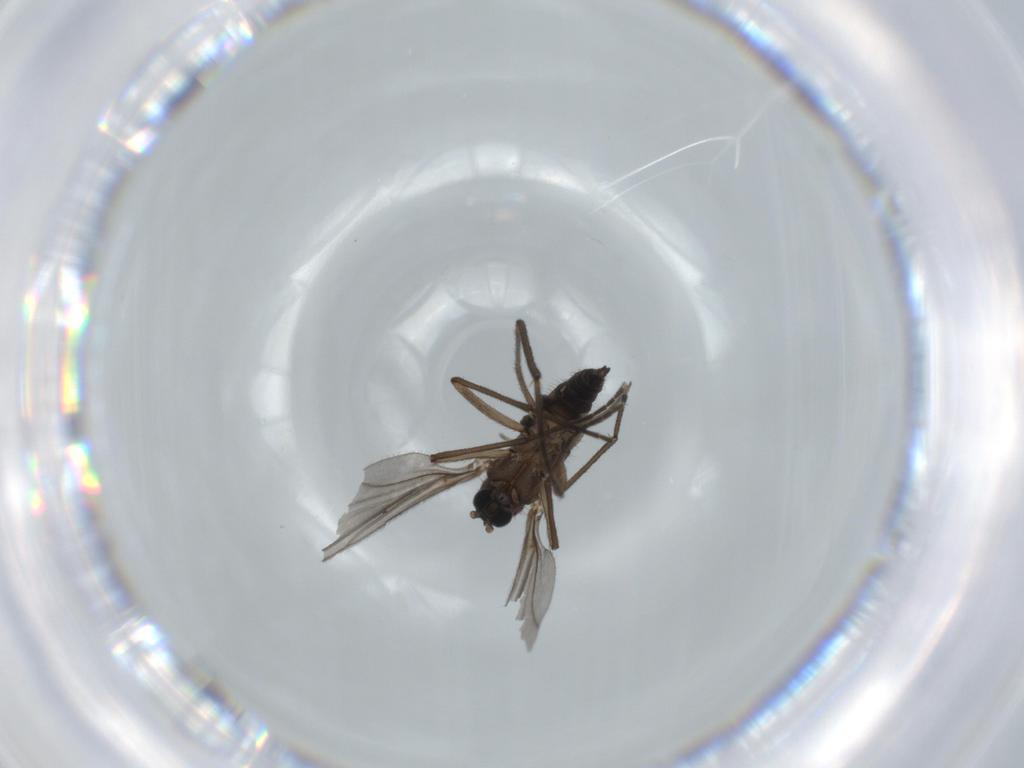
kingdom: Animalia
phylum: Arthropoda
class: Insecta
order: Diptera
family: Sciaridae
